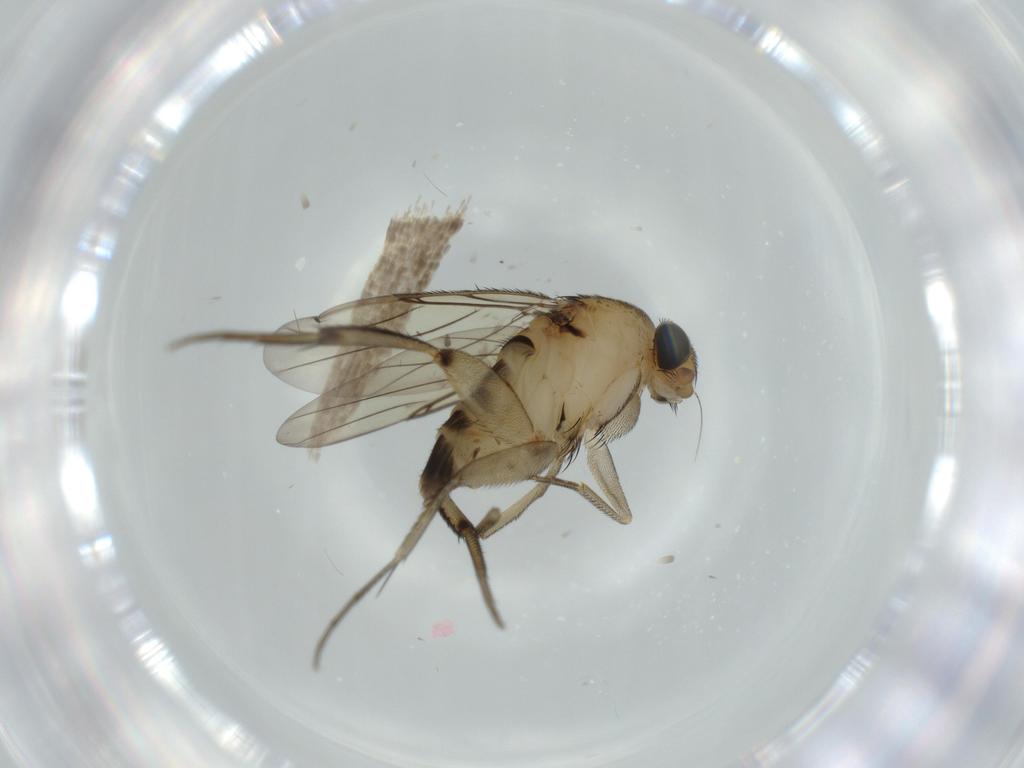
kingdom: Animalia
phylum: Arthropoda
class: Insecta
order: Diptera
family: Phoridae
